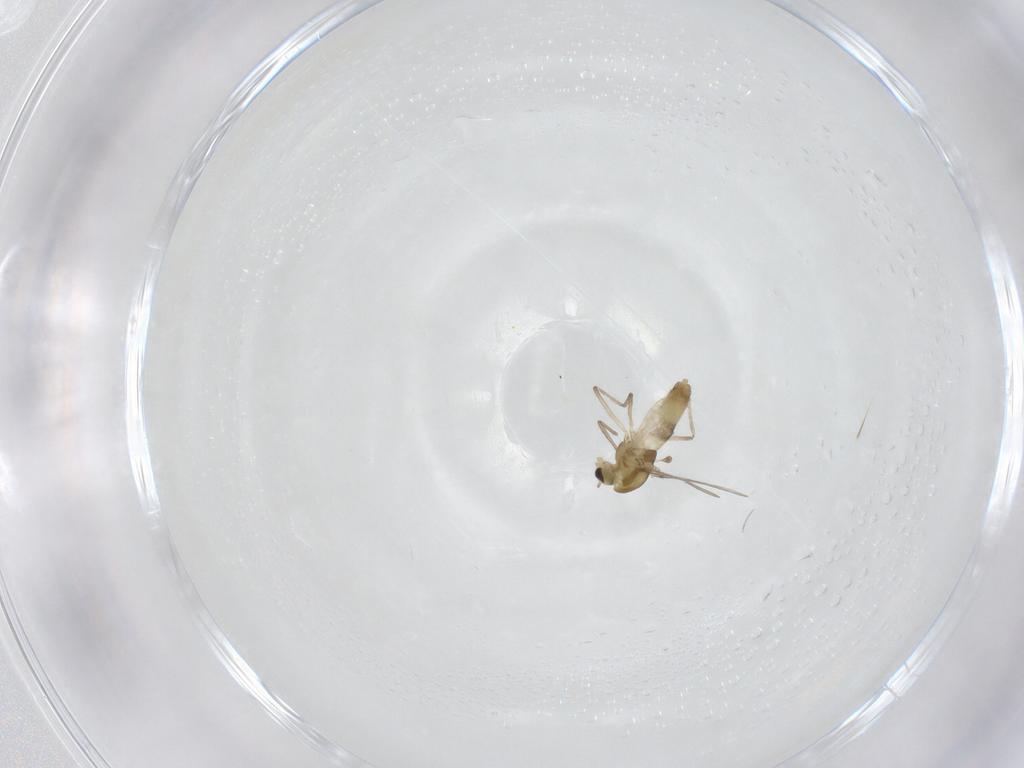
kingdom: Animalia
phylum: Arthropoda
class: Insecta
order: Diptera
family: Chironomidae
